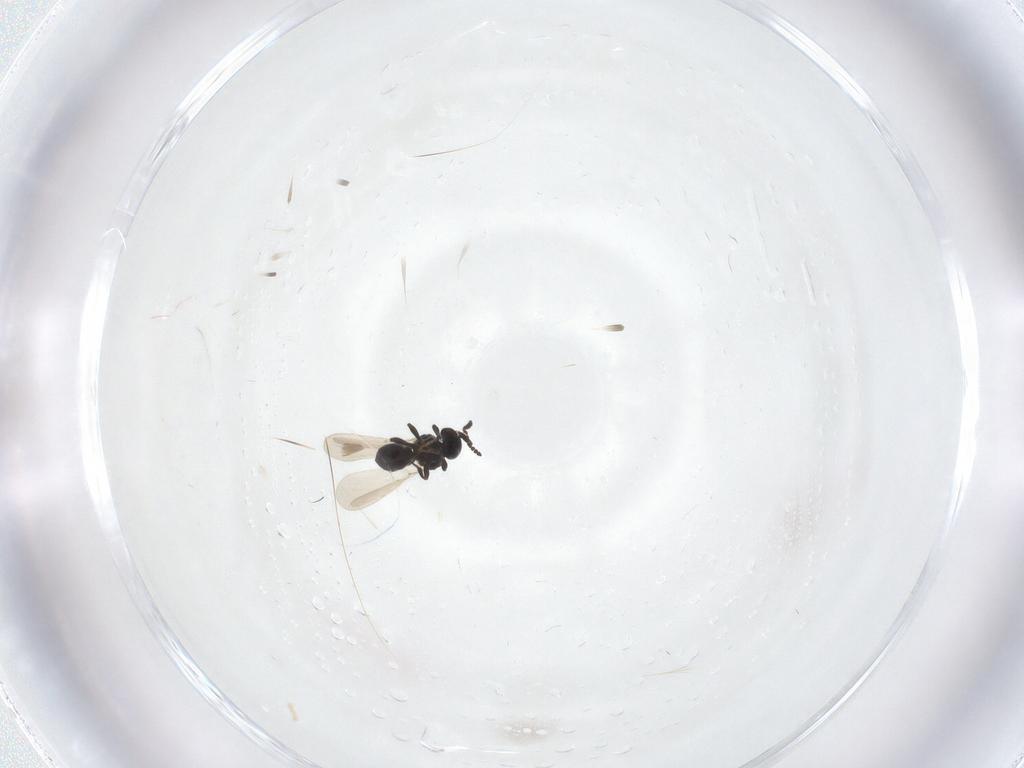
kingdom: Animalia
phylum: Arthropoda
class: Insecta
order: Hymenoptera
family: Platygastridae
